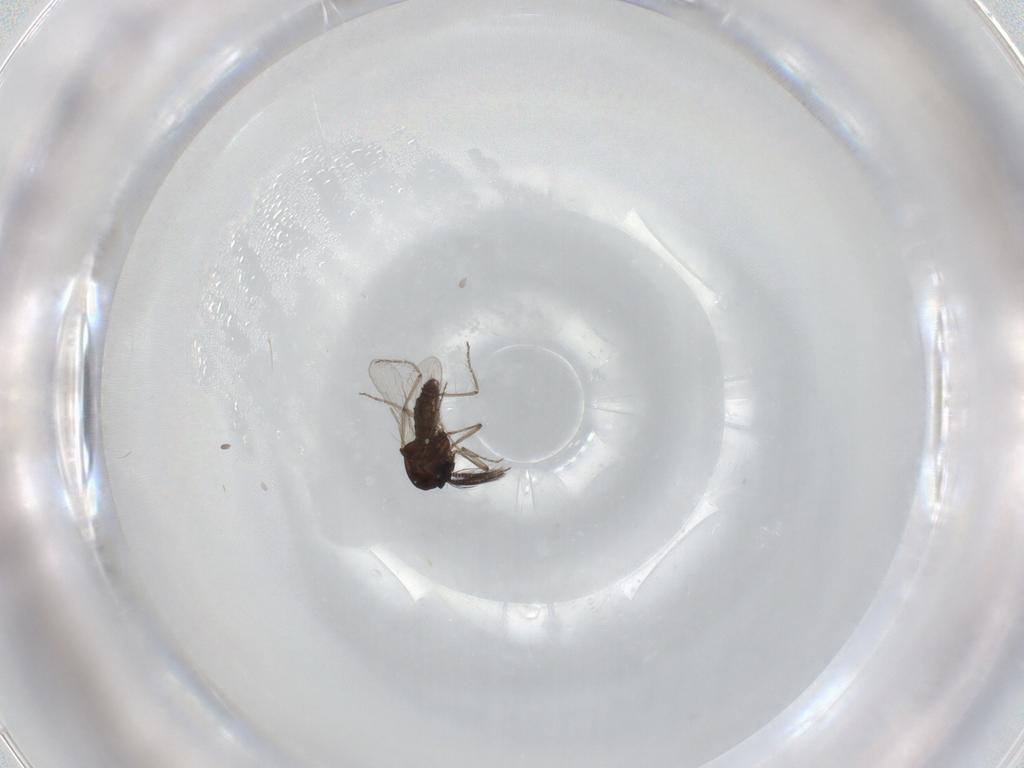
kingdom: Animalia
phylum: Arthropoda
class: Insecta
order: Diptera
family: Ceratopogonidae
